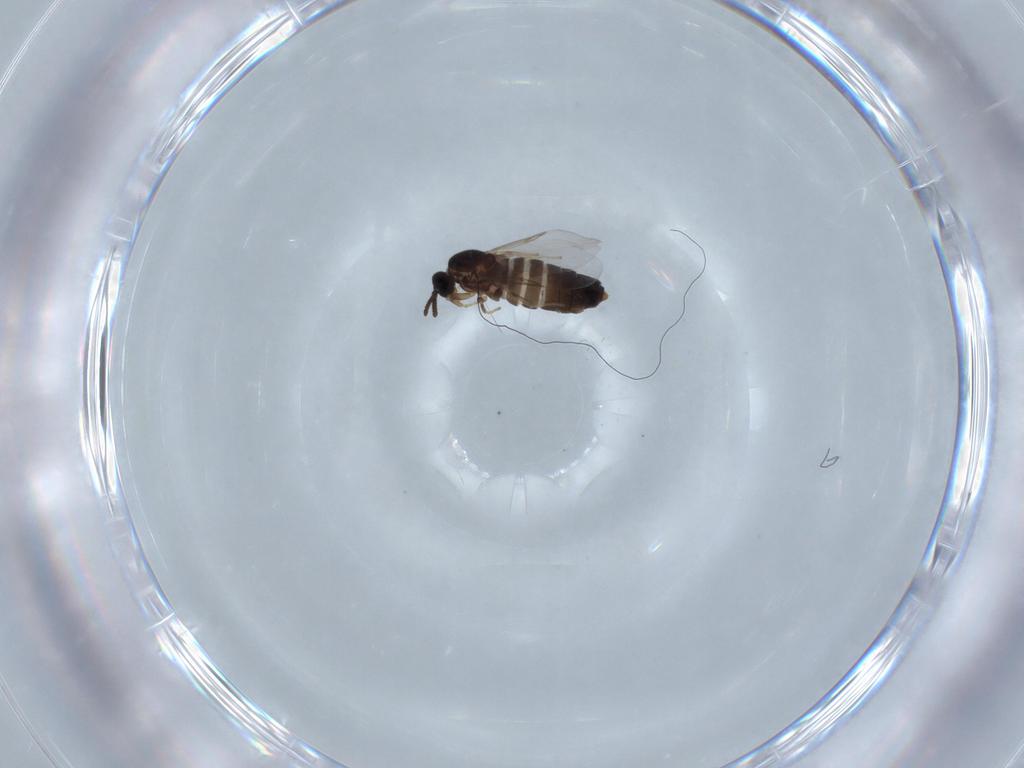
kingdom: Animalia
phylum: Arthropoda
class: Insecta
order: Diptera
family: Scatopsidae
